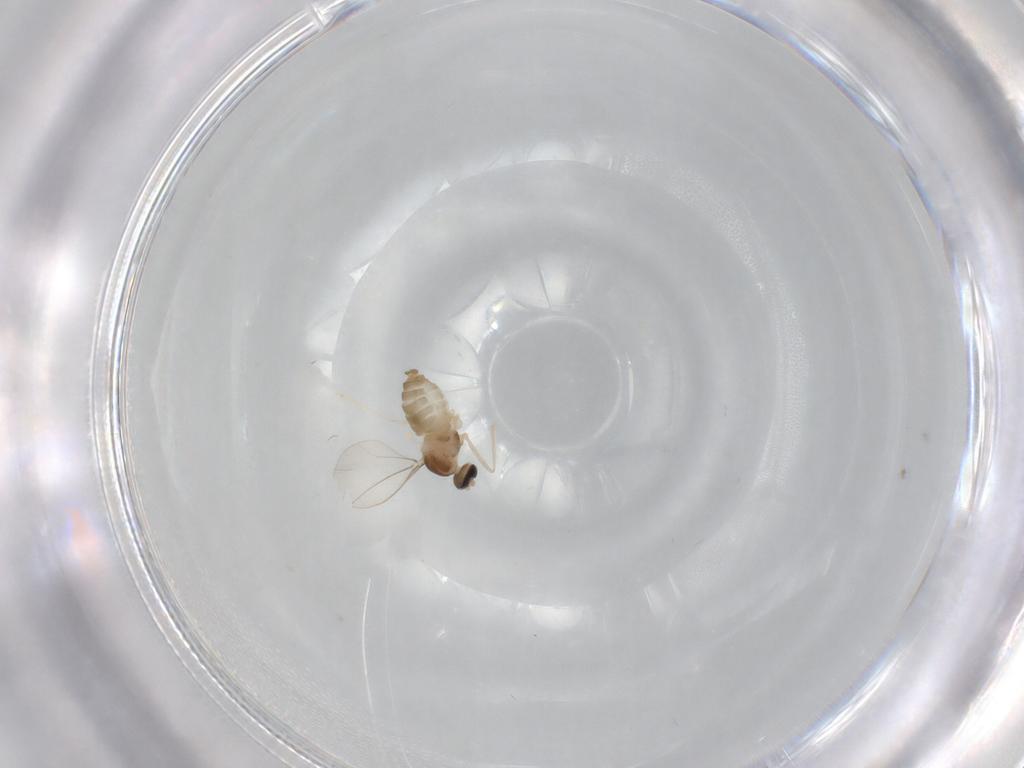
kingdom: Animalia
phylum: Arthropoda
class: Insecta
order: Diptera
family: Cecidomyiidae
